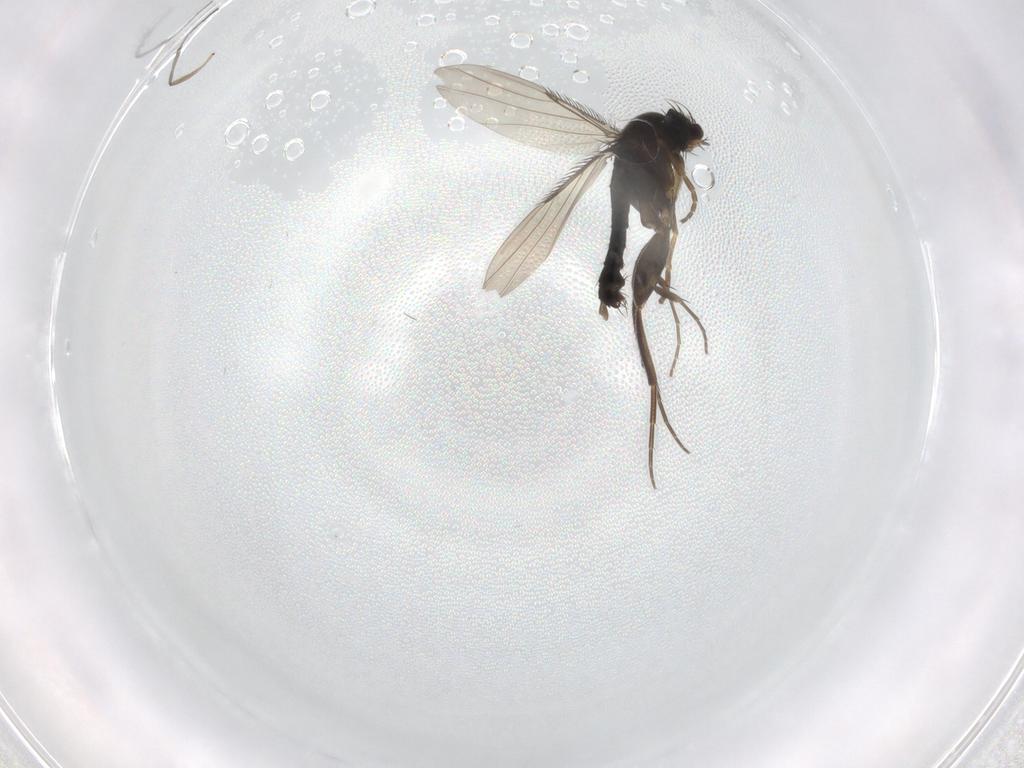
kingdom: Animalia
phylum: Arthropoda
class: Insecta
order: Diptera
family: Phoridae
